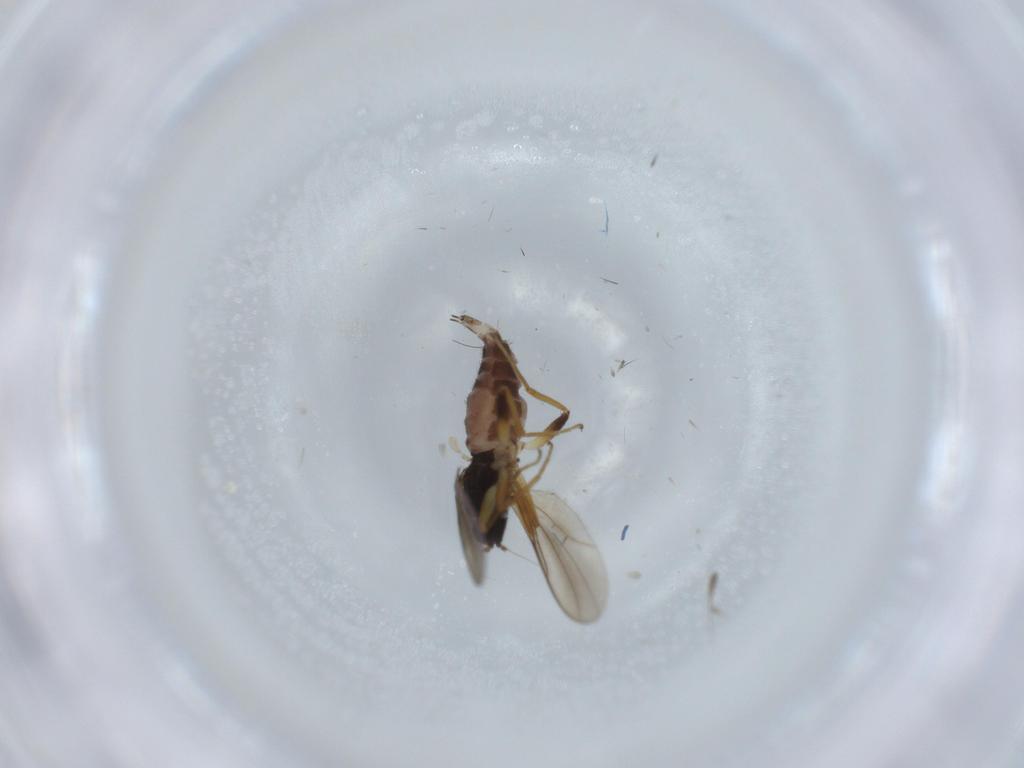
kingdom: Animalia
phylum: Arthropoda
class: Insecta
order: Diptera
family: Hybotidae
